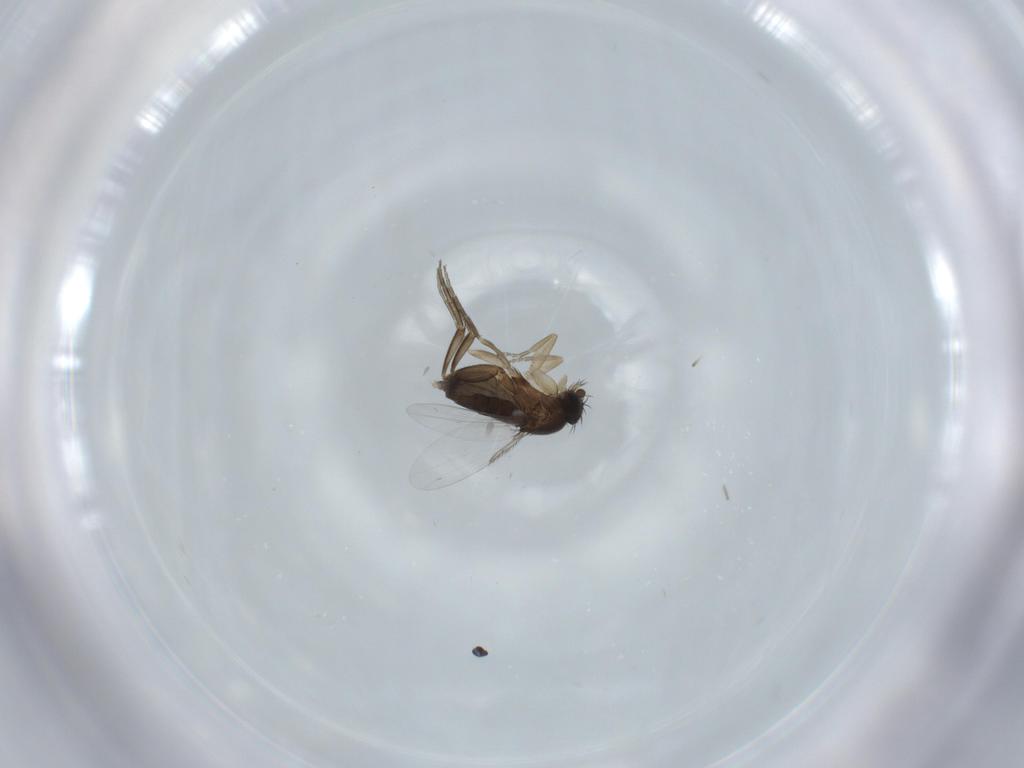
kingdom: Animalia
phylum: Arthropoda
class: Insecta
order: Diptera
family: Phoridae
